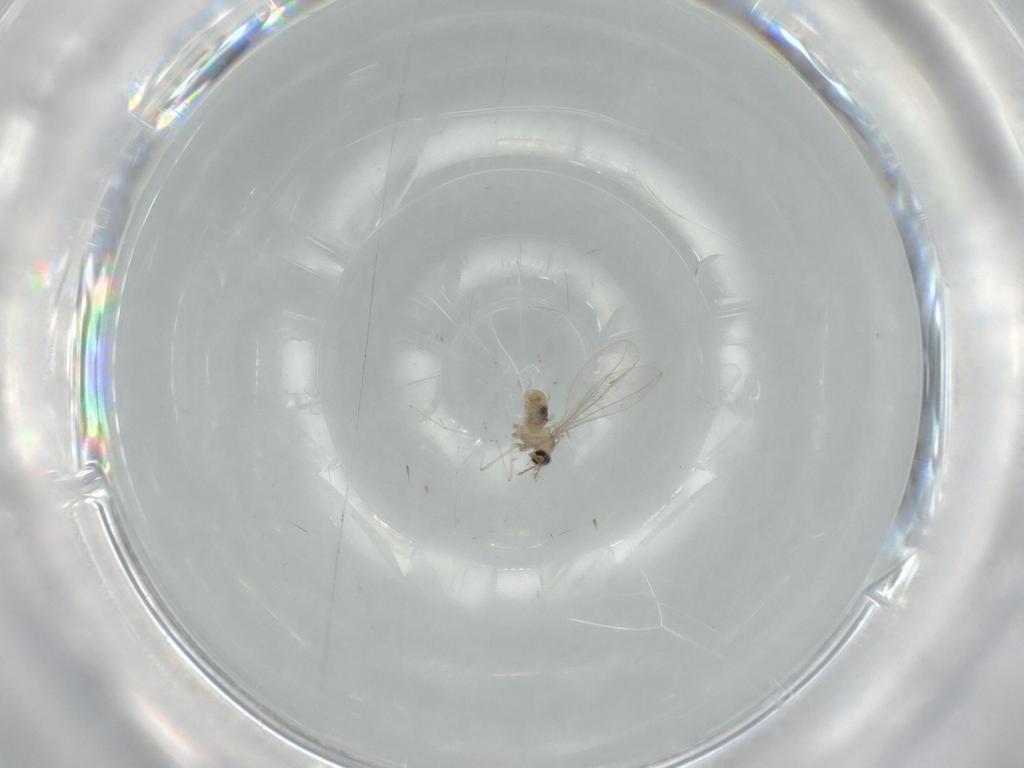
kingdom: Animalia
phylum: Arthropoda
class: Insecta
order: Diptera
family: Cecidomyiidae
